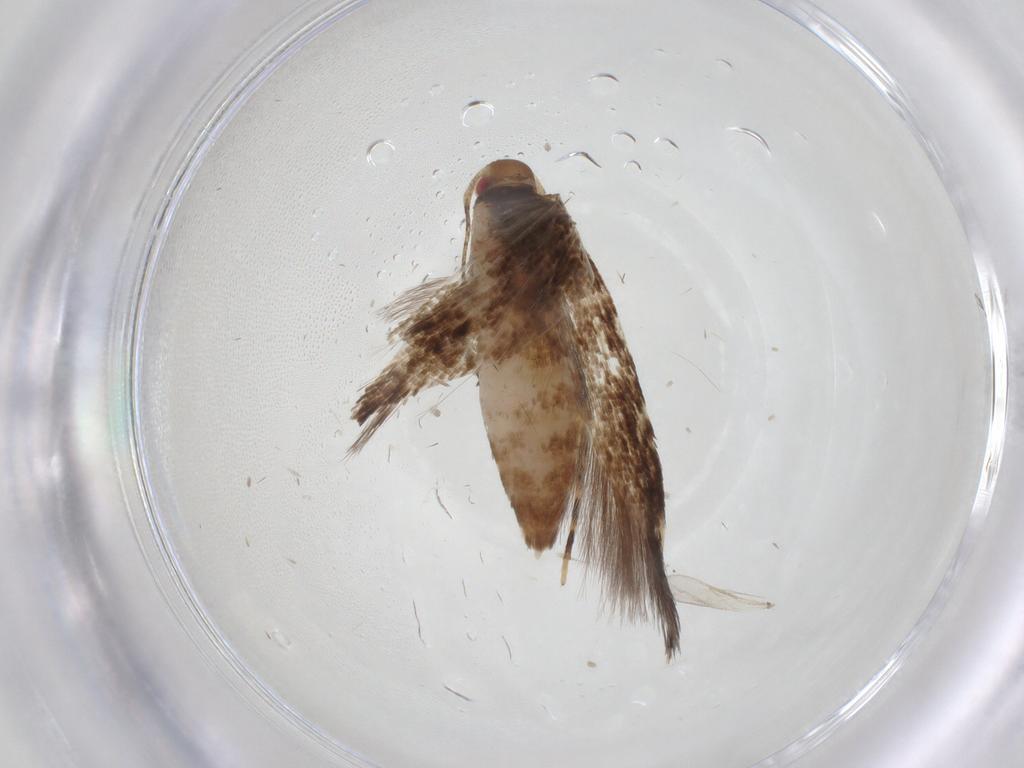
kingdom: Animalia
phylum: Arthropoda
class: Insecta
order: Lepidoptera
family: Cosmopterigidae
